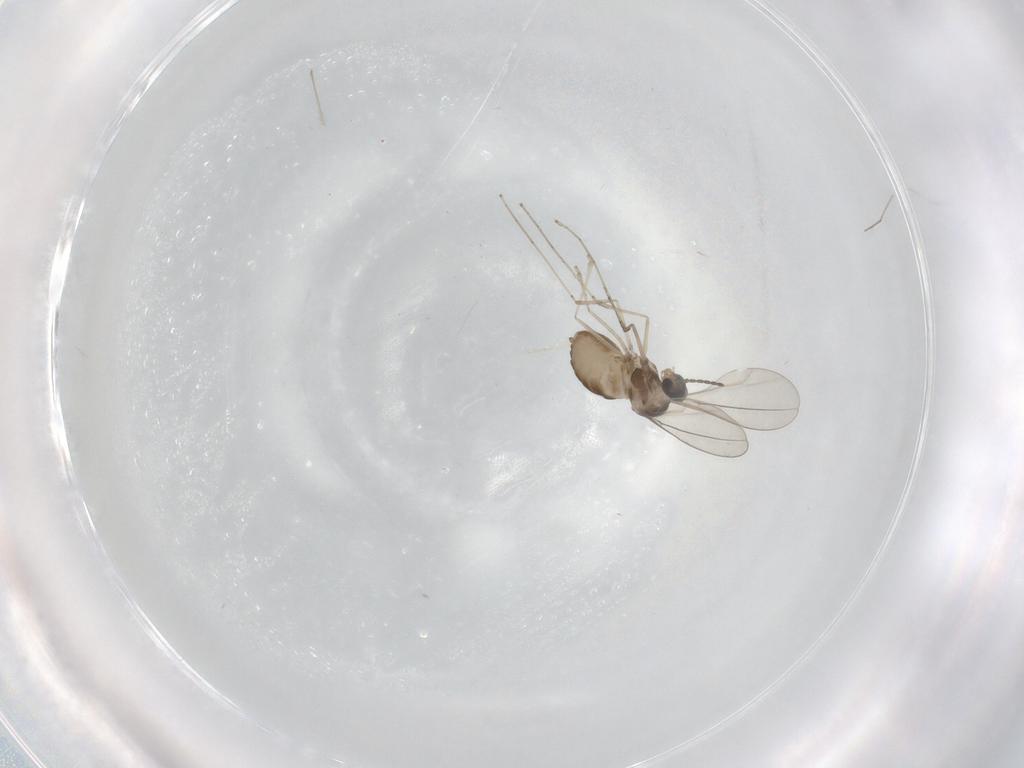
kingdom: Animalia
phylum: Arthropoda
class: Insecta
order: Diptera
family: Cecidomyiidae
